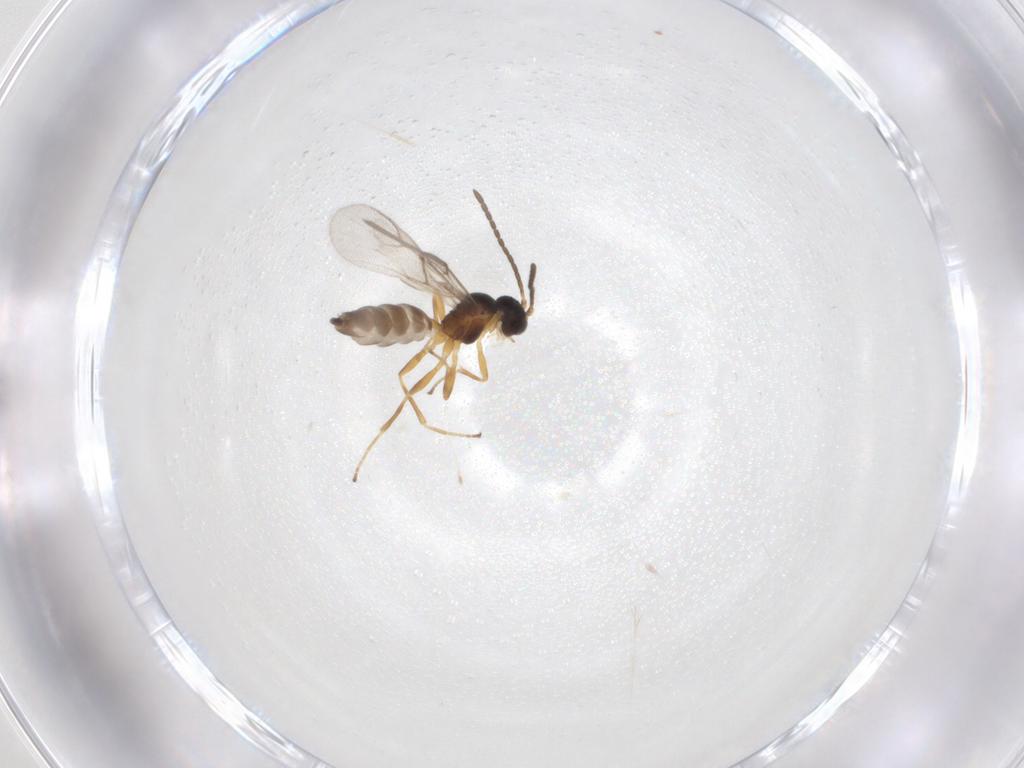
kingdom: Animalia
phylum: Arthropoda
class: Insecta
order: Hymenoptera
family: Braconidae
